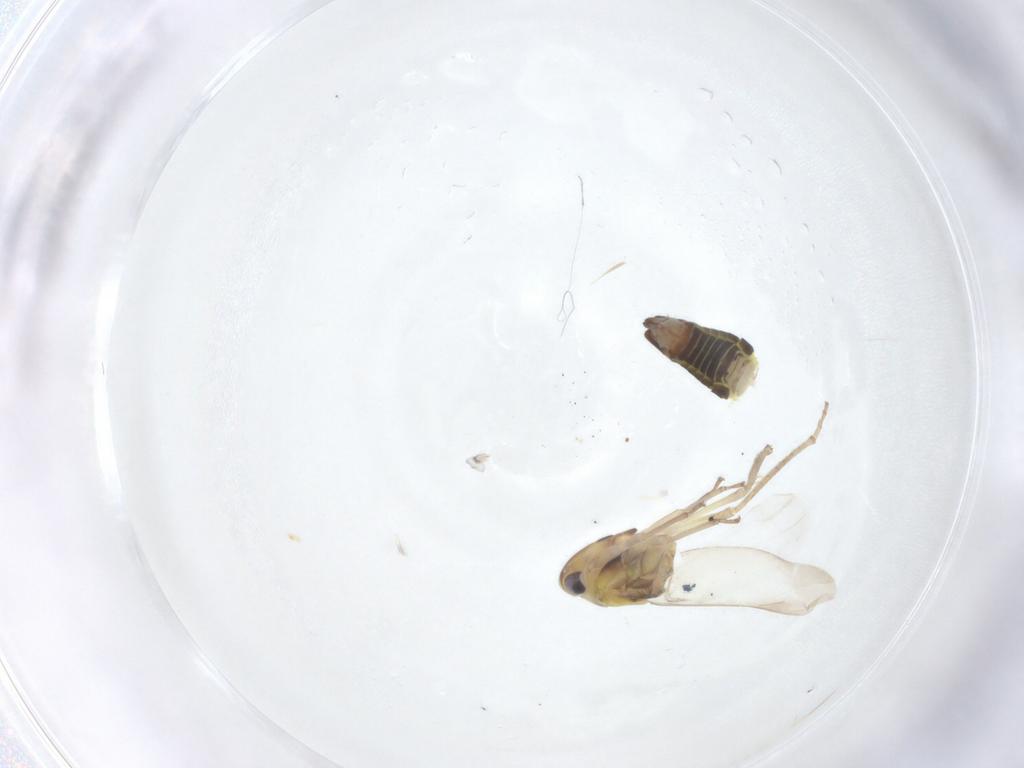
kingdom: Animalia
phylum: Arthropoda
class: Insecta
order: Hemiptera
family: Cicadellidae
